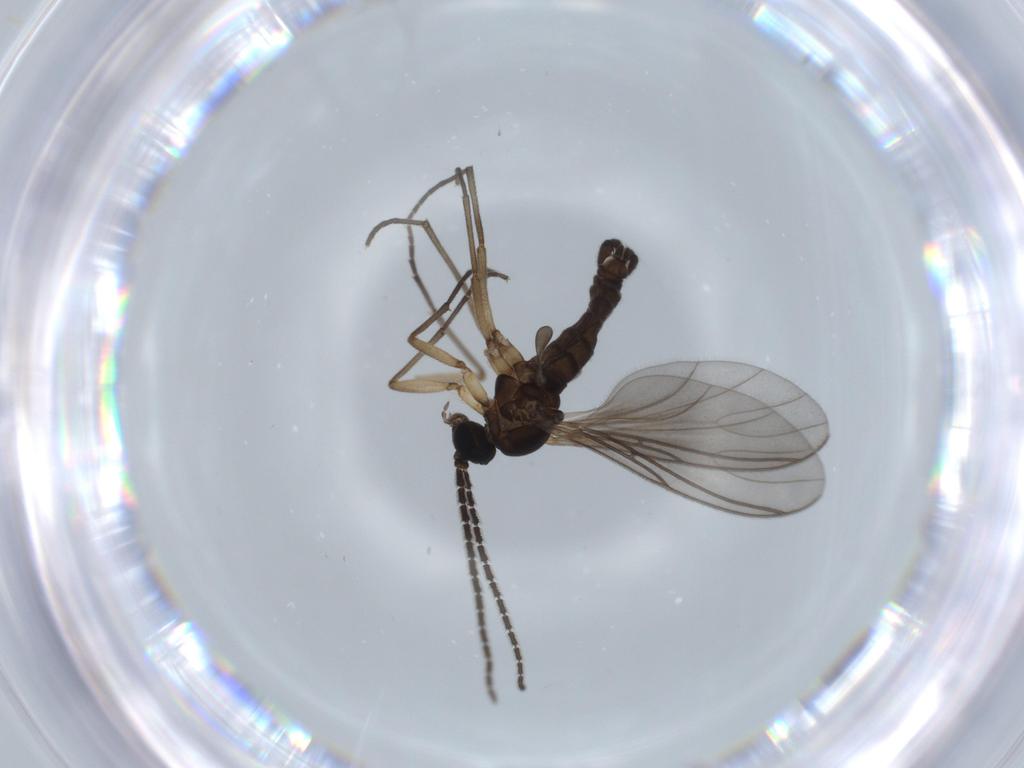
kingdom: Animalia
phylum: Arthropoda
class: Insecta
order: Diptera
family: Sciaridae
